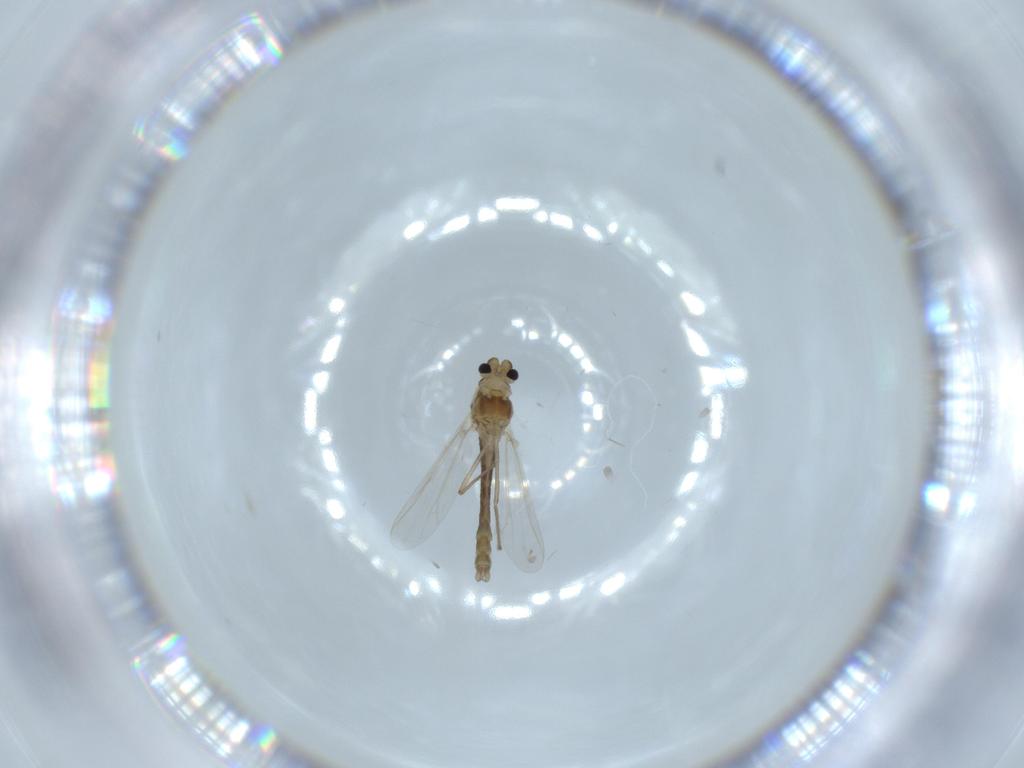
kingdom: Animalia
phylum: Arthropoda
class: Insecta
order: Diptera
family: Chironomidae
